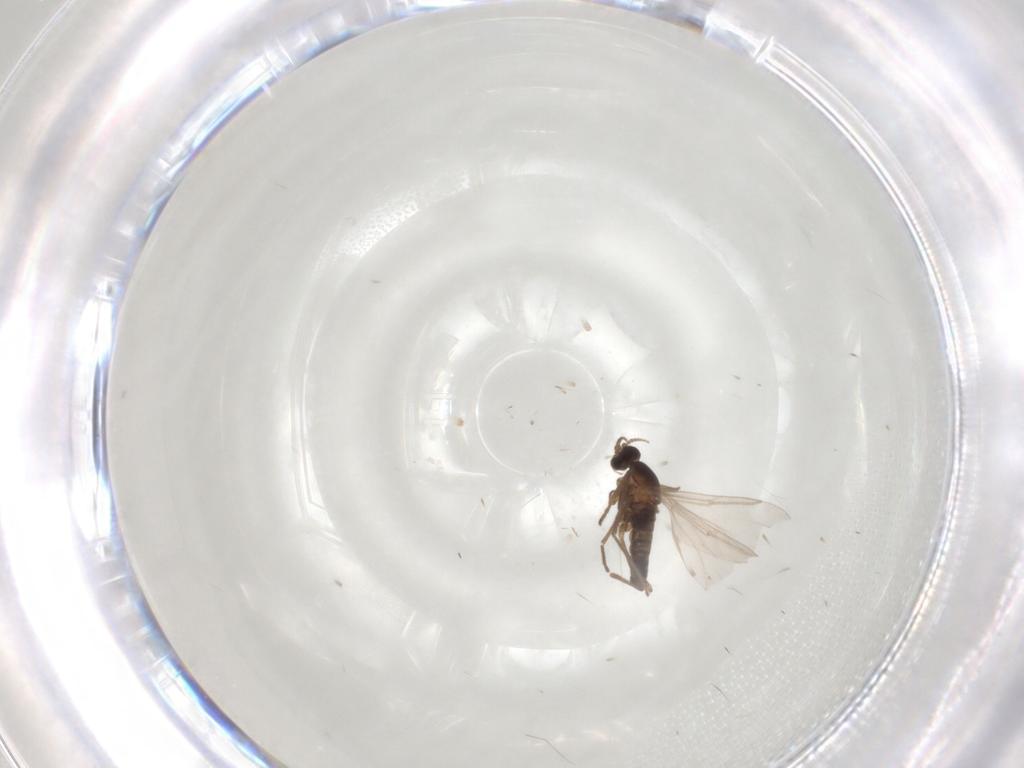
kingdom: Animalia
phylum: Arthropoda
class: Insecta
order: Diptera
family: Cecidomyiidae
